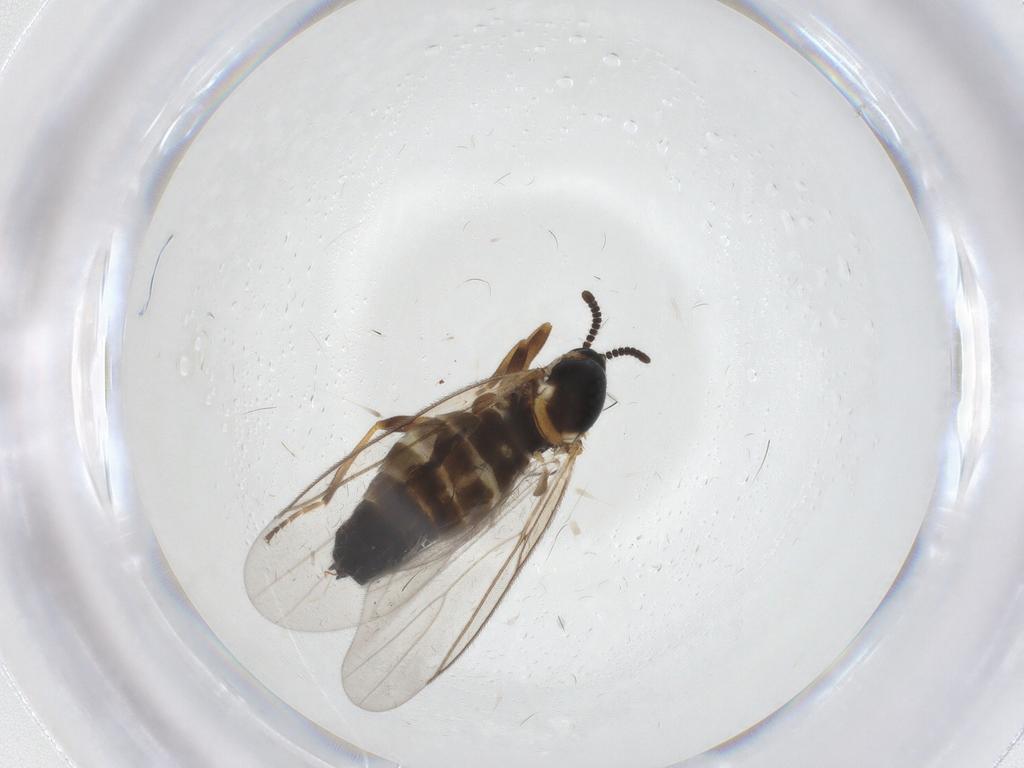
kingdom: Animalia
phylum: Arthropoda
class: Insecta
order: Diptera
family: Scatopsidae
